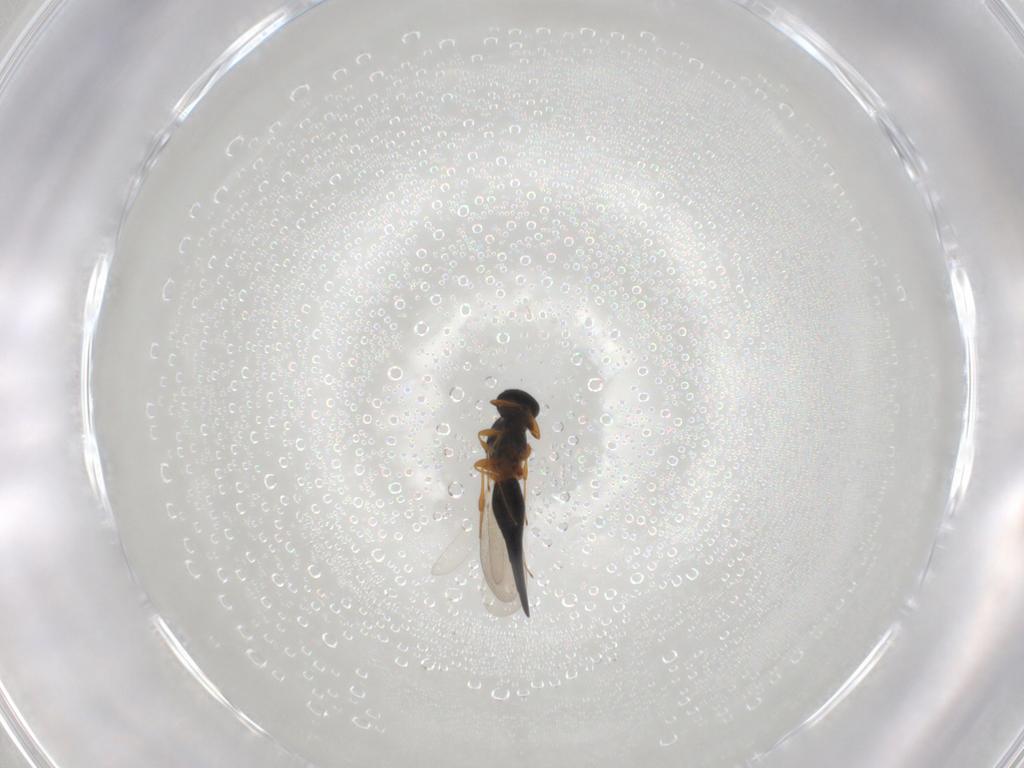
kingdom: Animalia
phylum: Arthropoda
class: Insecta
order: Hymenoptera
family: Platygastridae
